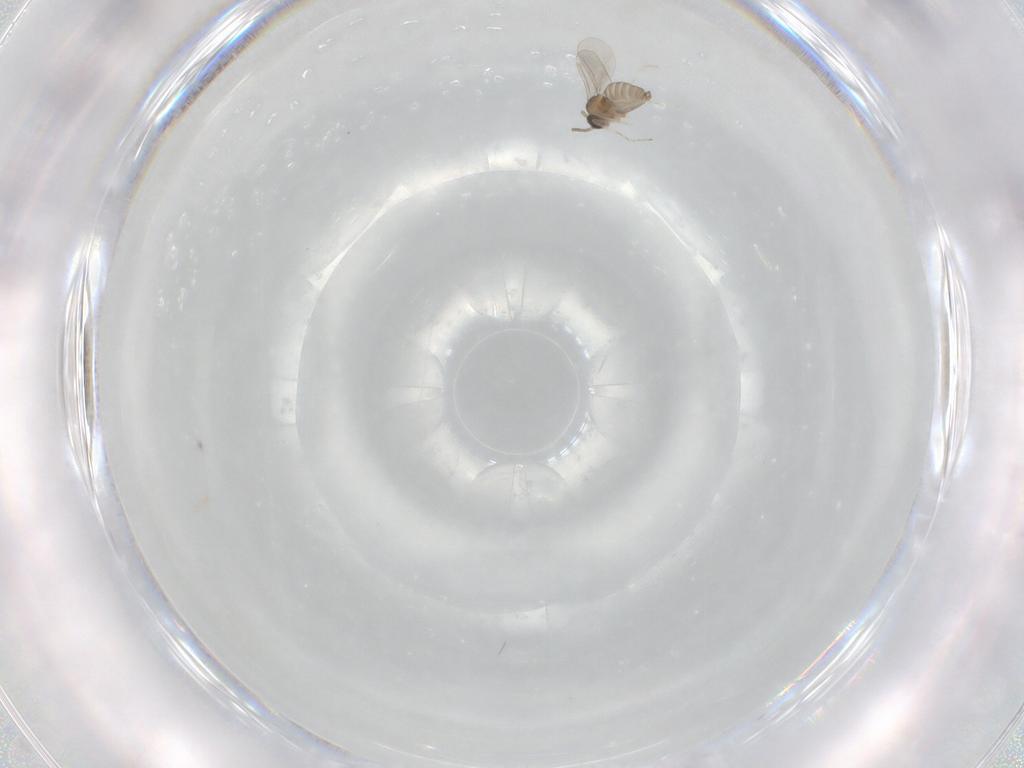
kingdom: Animalia
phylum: Arthropoda
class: Insecta
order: Diptera
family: Cecidomyiidae
